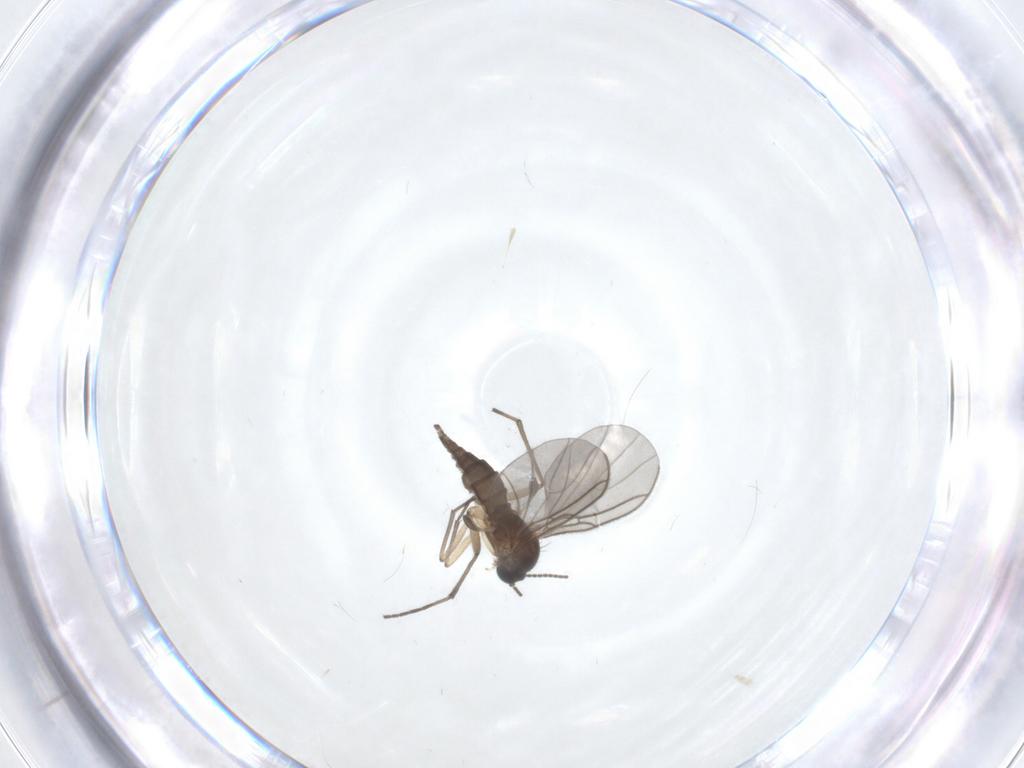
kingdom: Animalia
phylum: Arthropoda
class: Insecta
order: Diptera
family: Sciaridae
